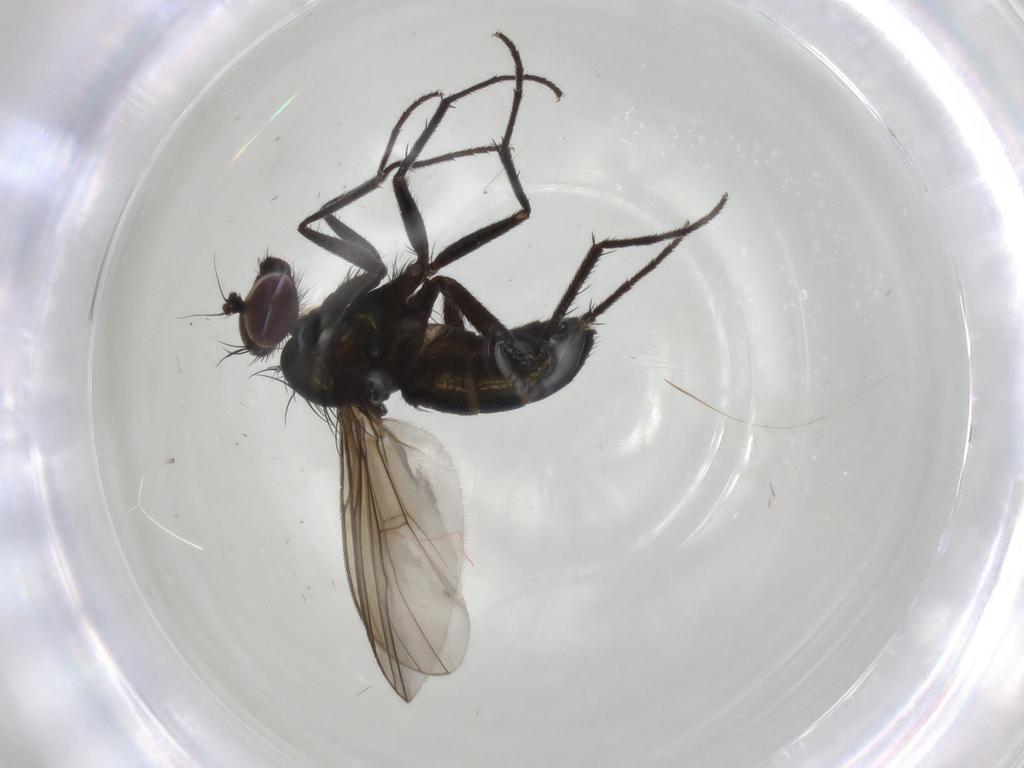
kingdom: Animalia
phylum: Arthropoda
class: Insecta
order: Diptera
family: Dolichopodidae
